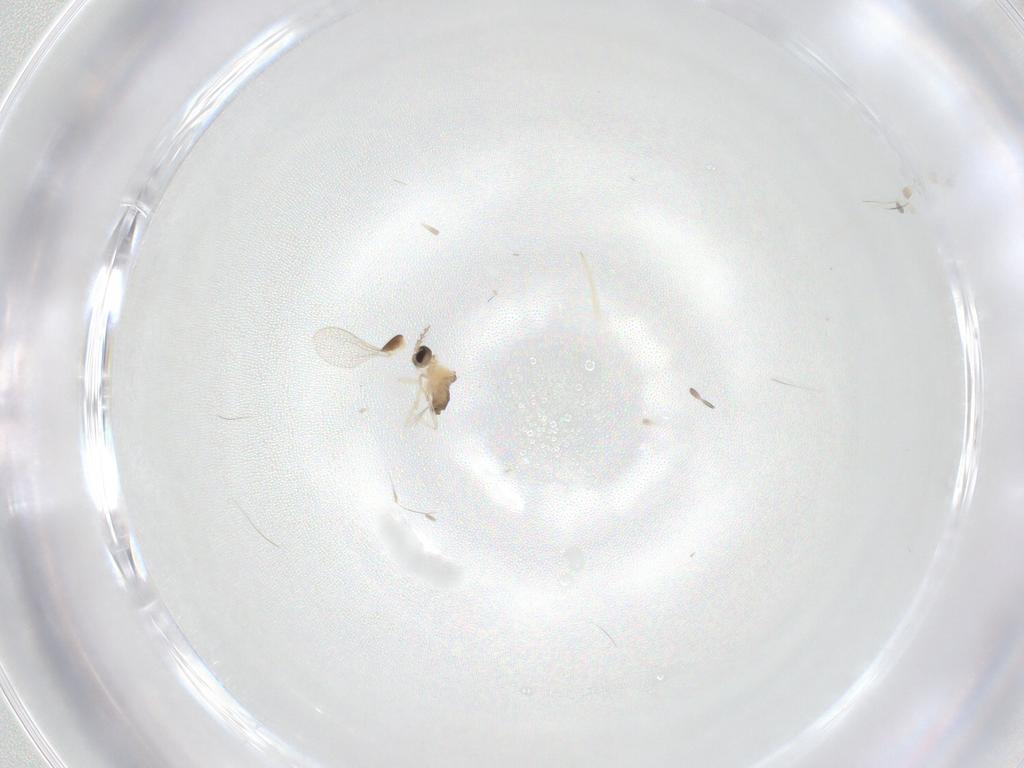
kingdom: Animalia
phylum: Arthropoda
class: Insecta
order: Diptera
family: Cecidomyiidae
